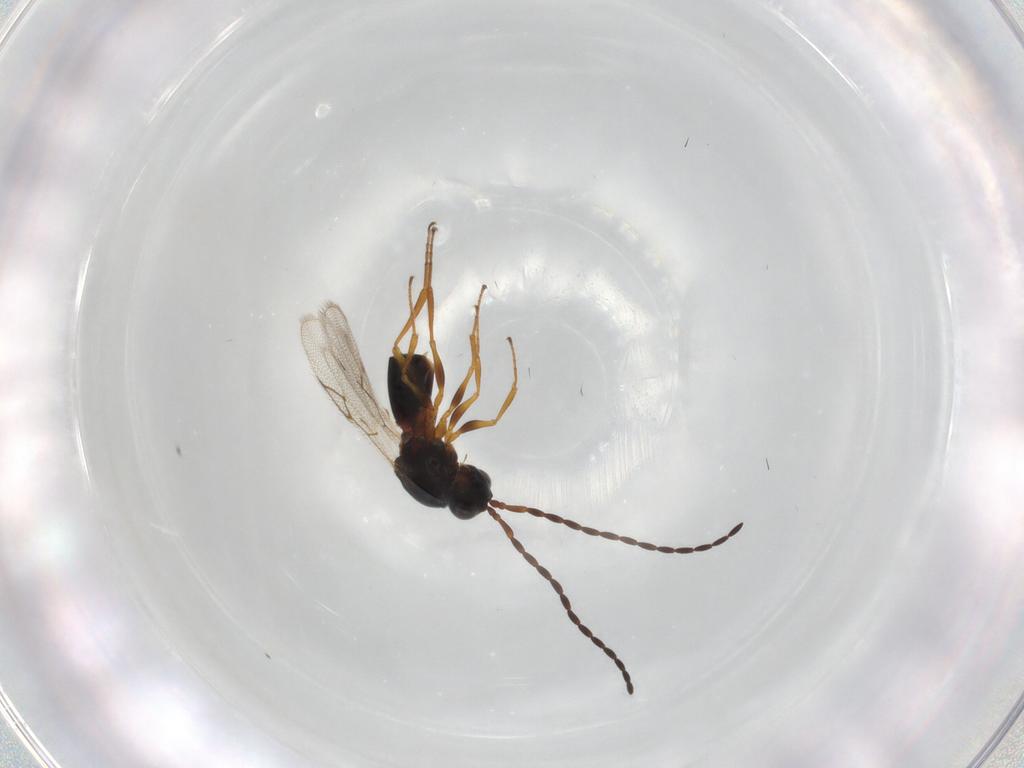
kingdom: Animalia
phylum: Arthropoda
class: Insecta
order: Hymenoptera
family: Figitidae
